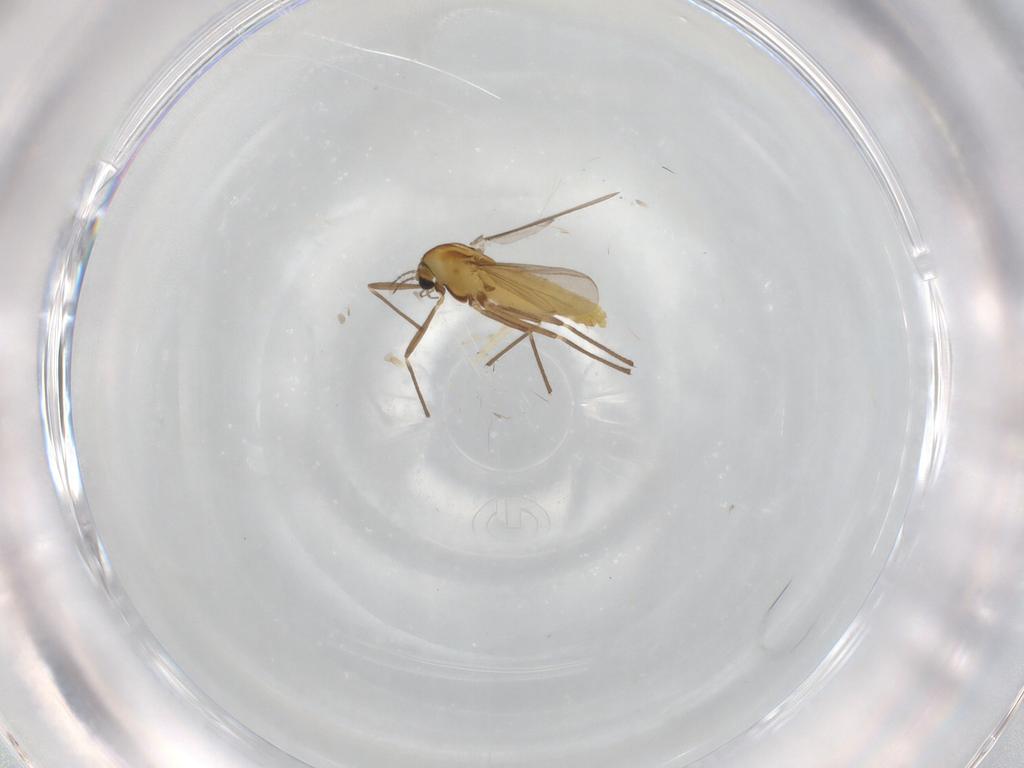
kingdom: Animalia
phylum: Arthropoda
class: Insecta
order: Diptera
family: Chironomidae
